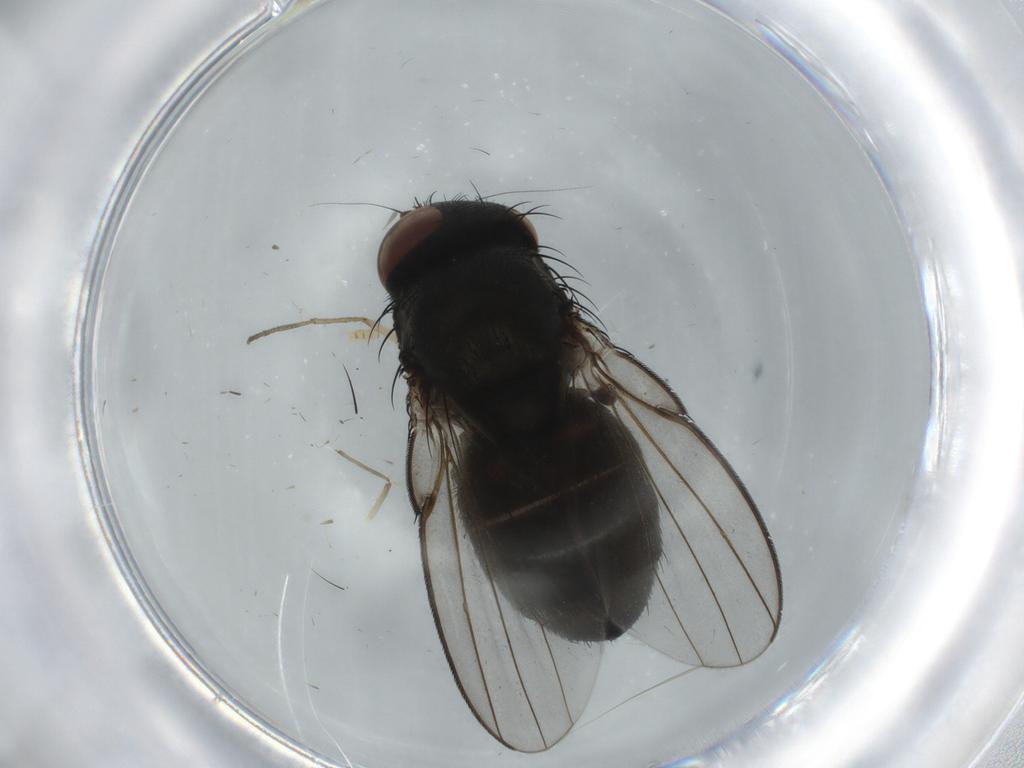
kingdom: Animalia
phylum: Arthropoda
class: Insecta
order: Diptera
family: Milichiidae
